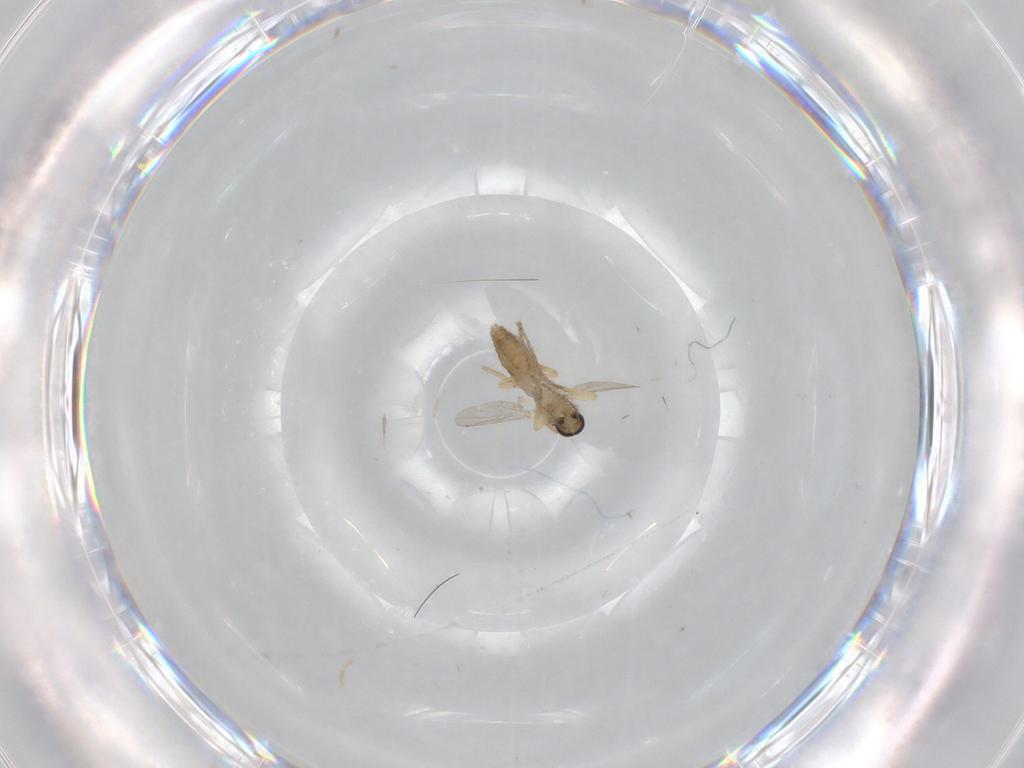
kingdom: Animalia
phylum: Arthropoda
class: Insecta
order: Diptera
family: Ceratopogonidae
